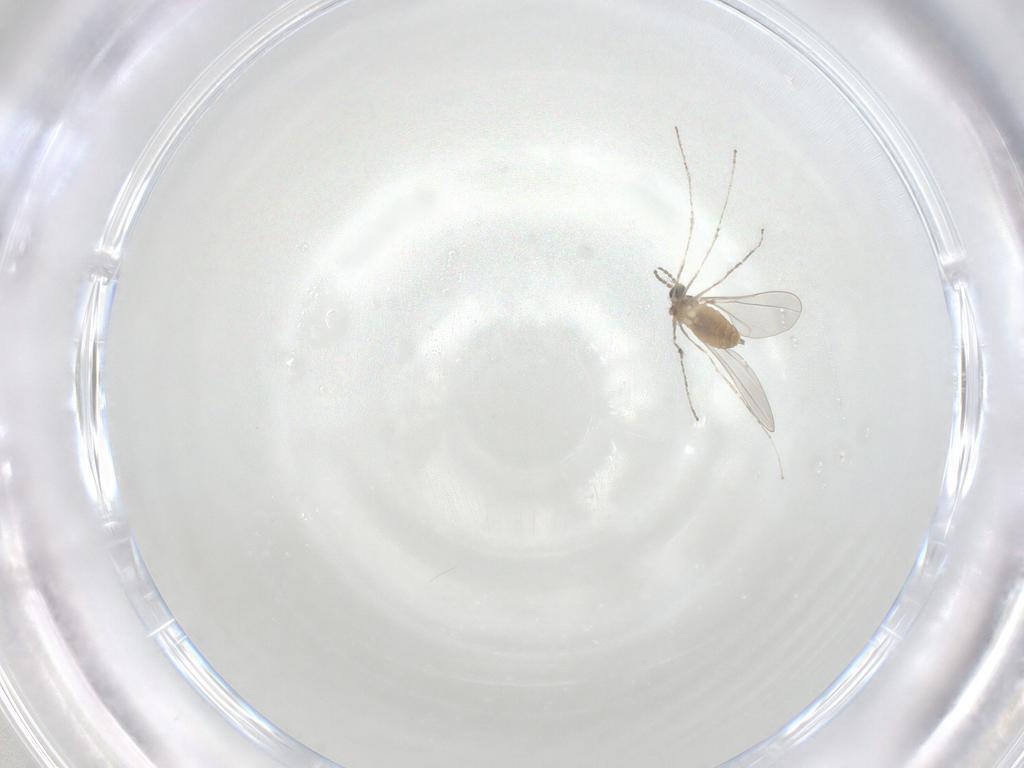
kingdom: Animalia
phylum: Arthropoda
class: Insecta
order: Diptera
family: Cecidomyiidae
